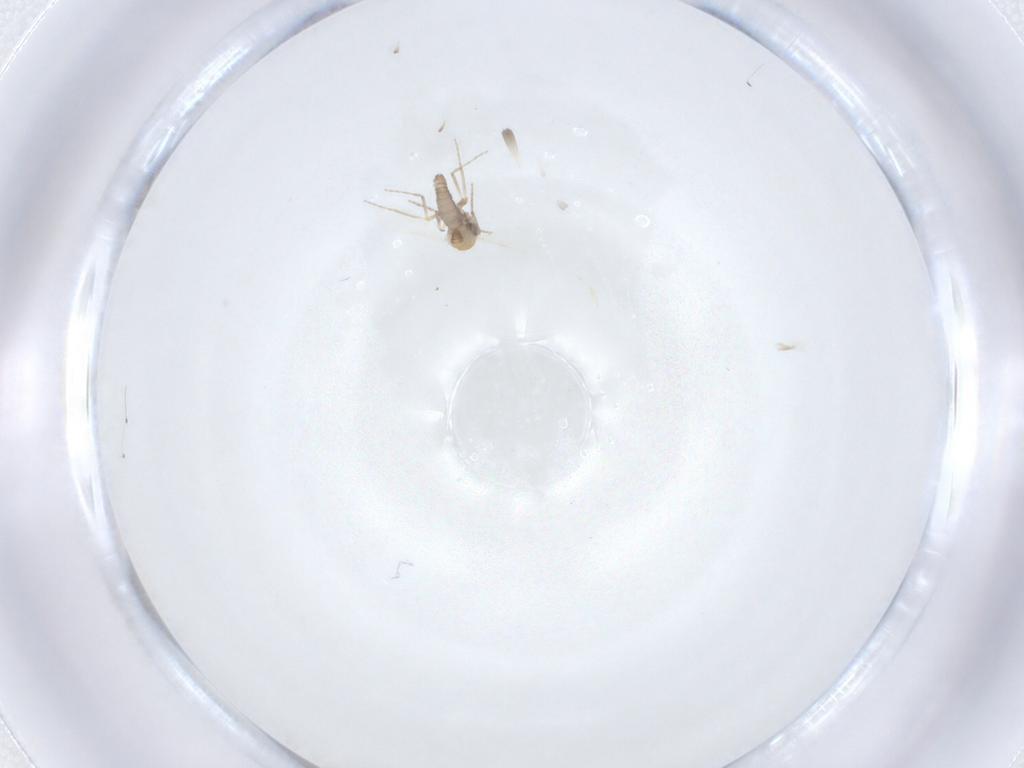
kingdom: Animalia
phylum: Arthropoda
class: Insecta
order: Diptera
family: Ceratopogonidae
